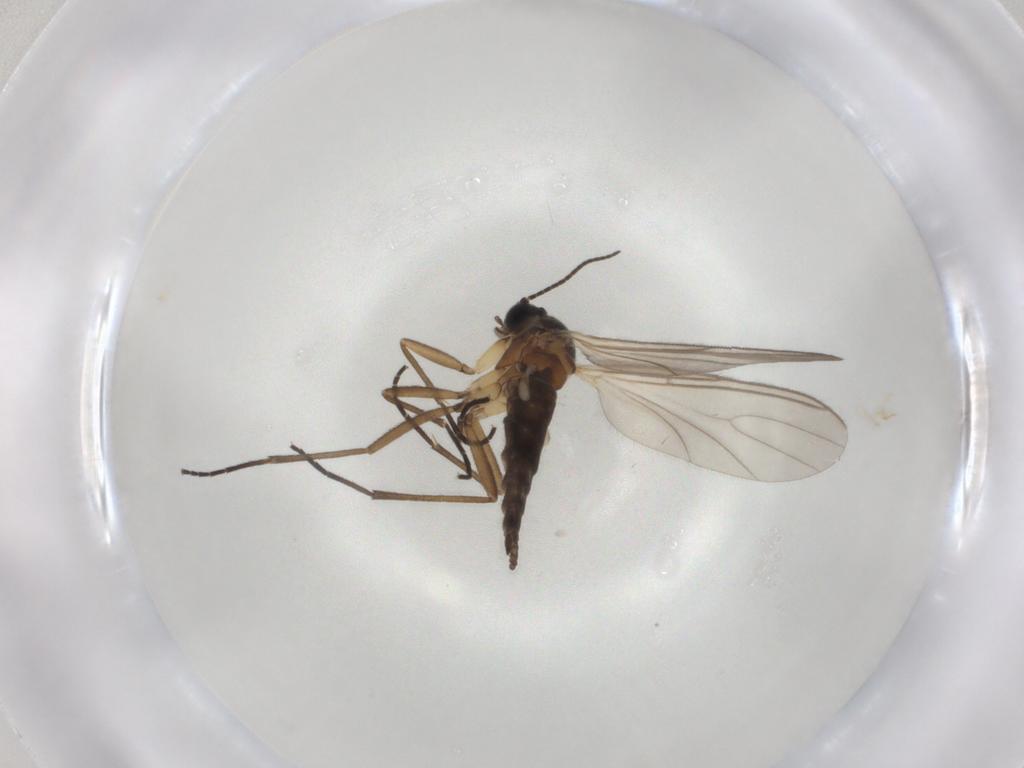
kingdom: Animalia
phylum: Arthropoda
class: Insecta
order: Diptera
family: Sciaridae
